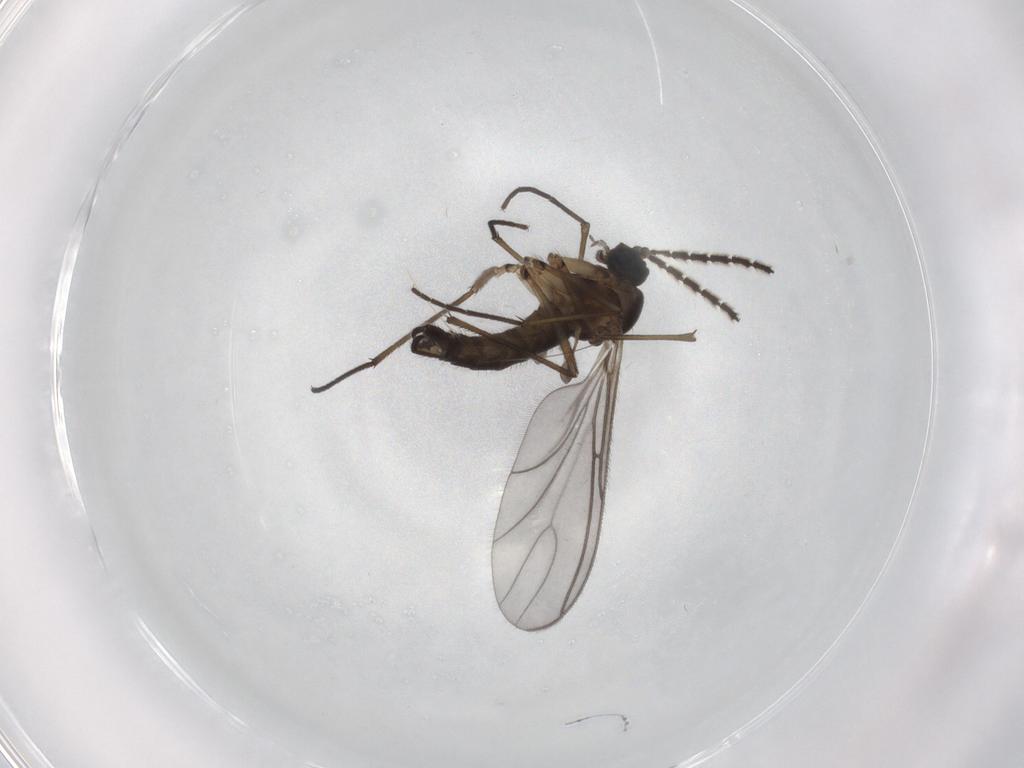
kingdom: Animalia
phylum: Arthropoda
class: Insecta
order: Diptera
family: Sciaridae
